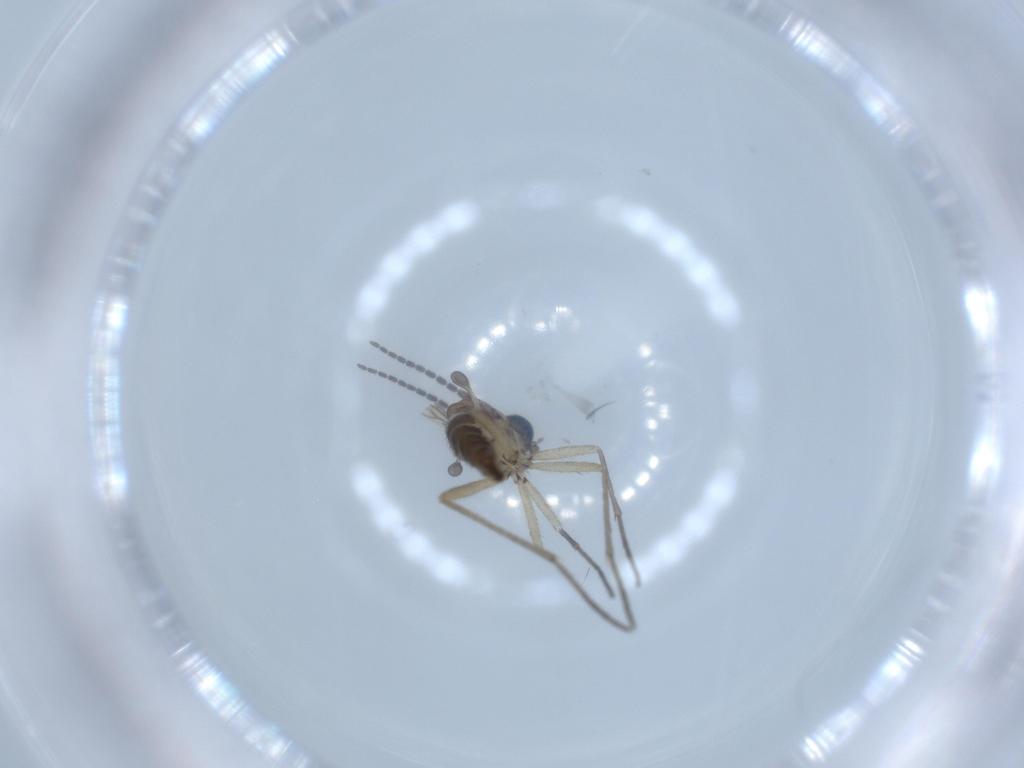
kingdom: Animalia
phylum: Arthropoda
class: Insecta
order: Diptera
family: Sciaridae
